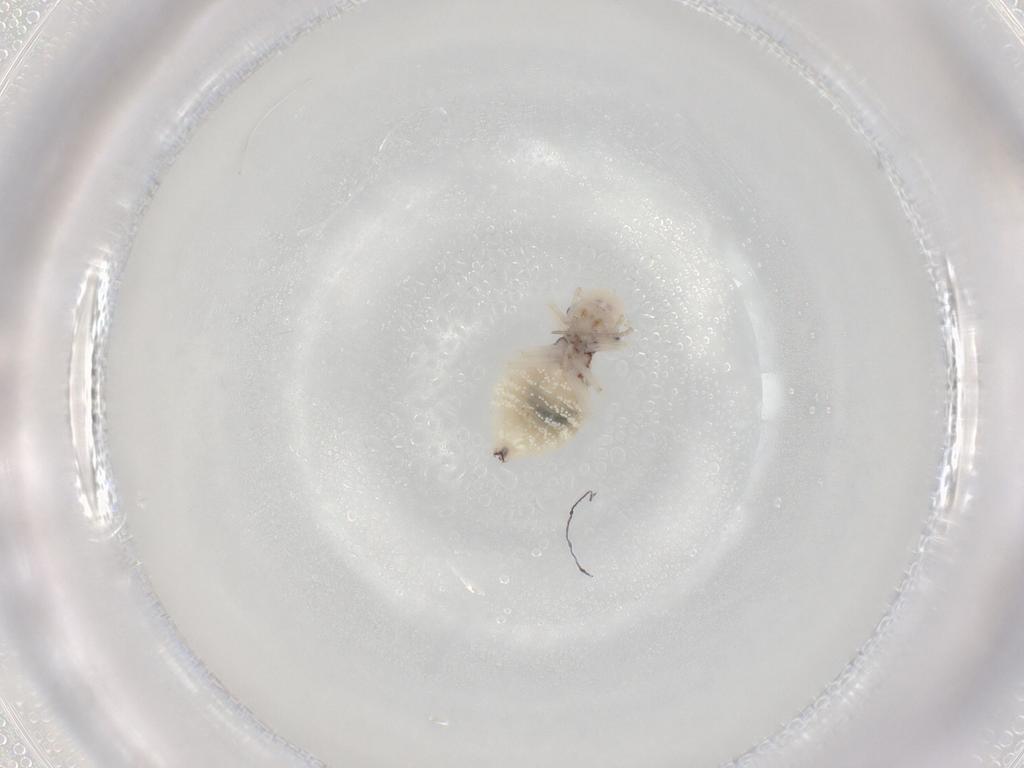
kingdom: Animalia
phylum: Arthropoda
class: Insecta
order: Psocodea
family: Amphipsocidae
